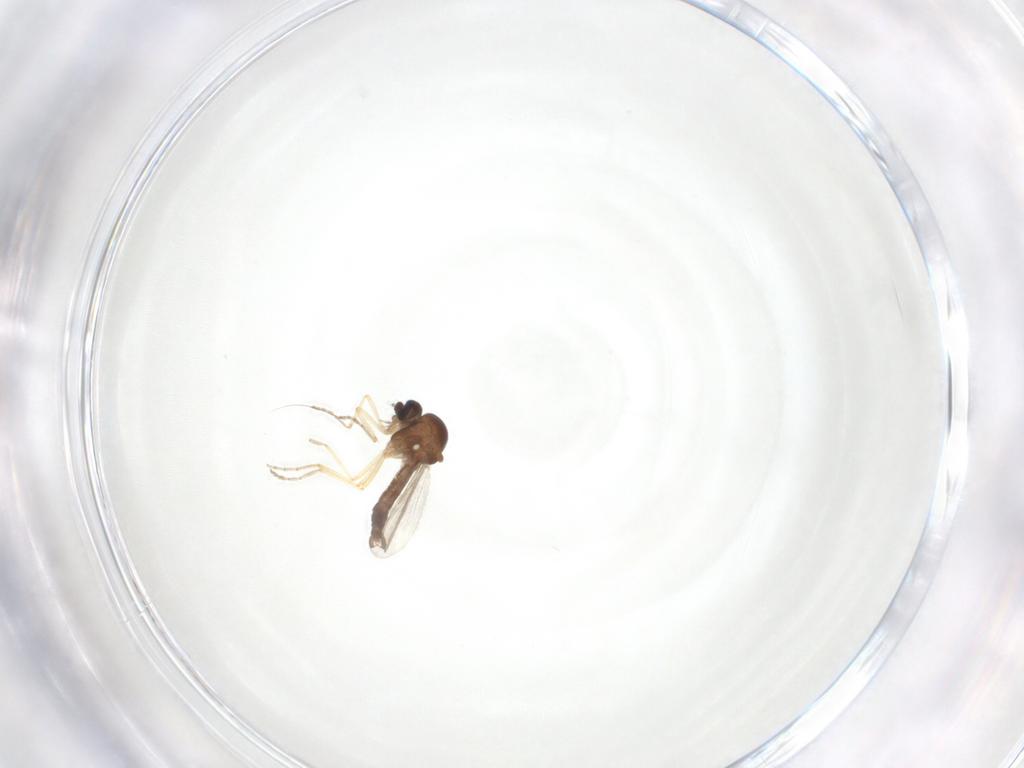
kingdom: Animalia
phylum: Arthropoda
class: Insecta
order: Diptera
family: Ceratopogonidae
